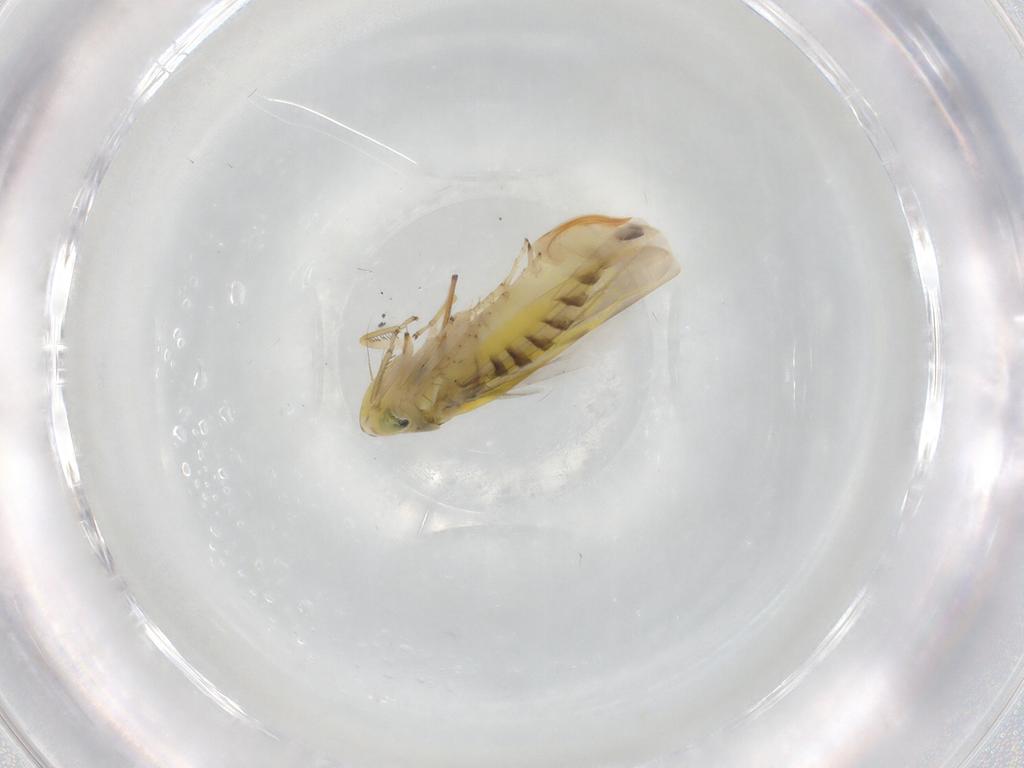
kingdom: Animalia
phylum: Arthropoda
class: Insecta
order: Hemiptera
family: Cicadellidae
